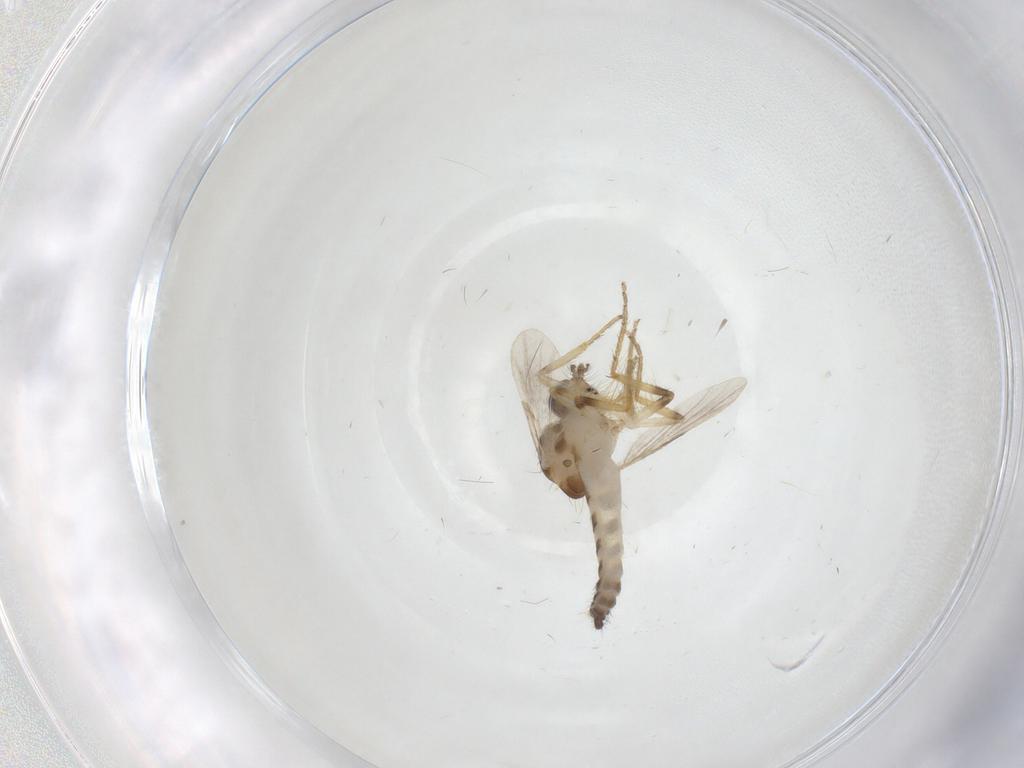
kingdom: Animalia
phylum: Arthropoda
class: Insecta
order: Diptera
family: Cecidomyiidae
